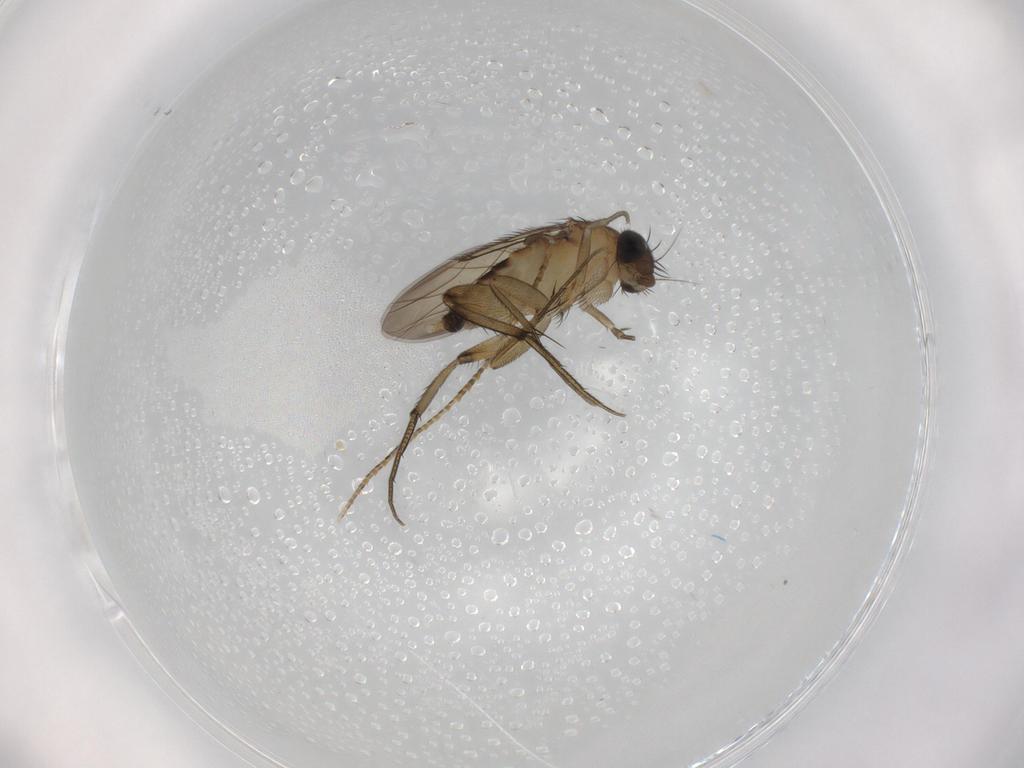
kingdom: Animalia
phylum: Arthropoda
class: Insecta
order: Diptera
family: Phoridae
